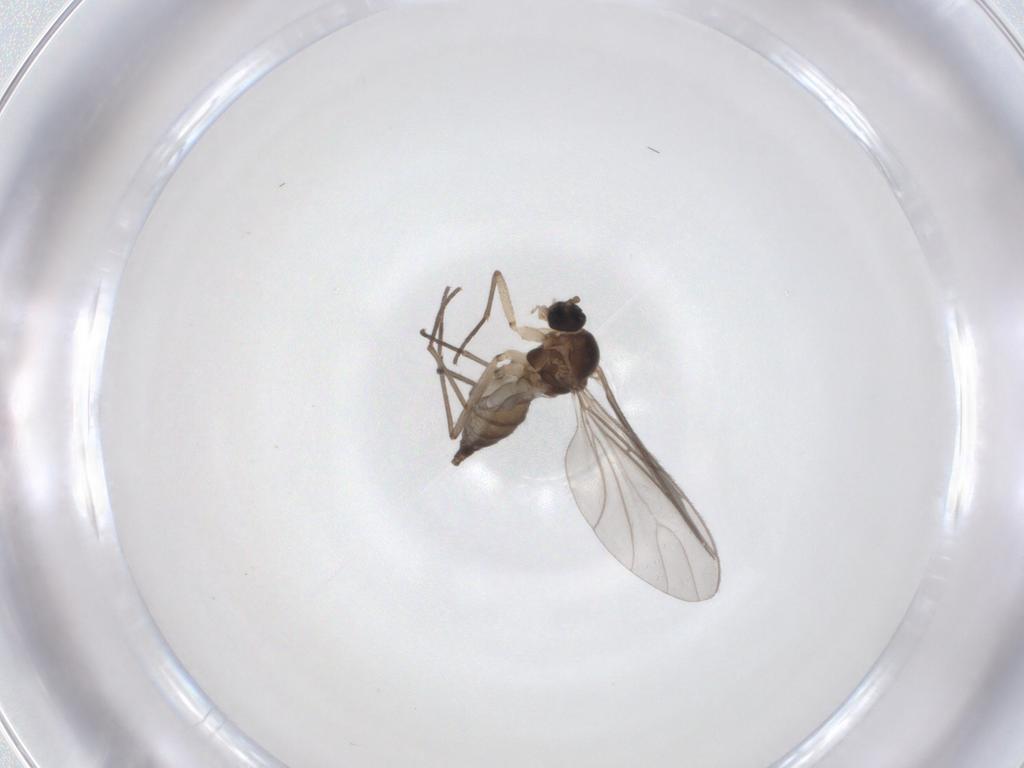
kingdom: Animalia
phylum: Arthropoda
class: Insecta
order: Diptera
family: Sciaridae
